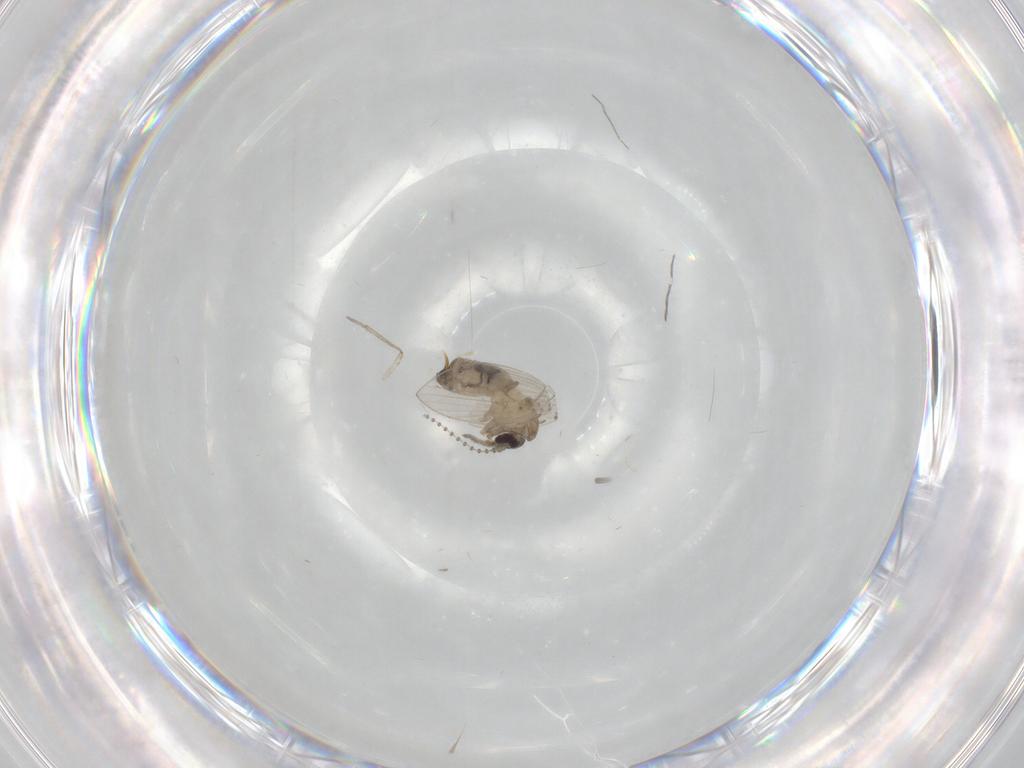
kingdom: Animalia
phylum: Arthropoda
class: Insecta
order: Diptera
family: Psychodidae
